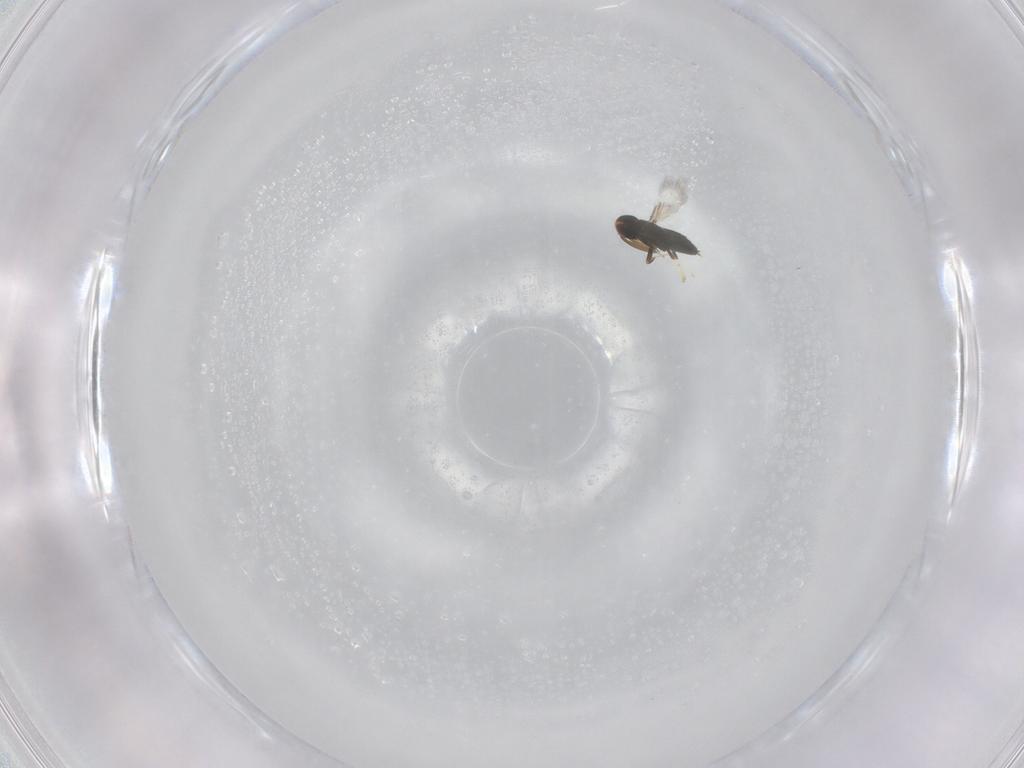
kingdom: Animalia
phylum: Arthropoda
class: Insecta
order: Hymenoptera
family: Signiphoridae
